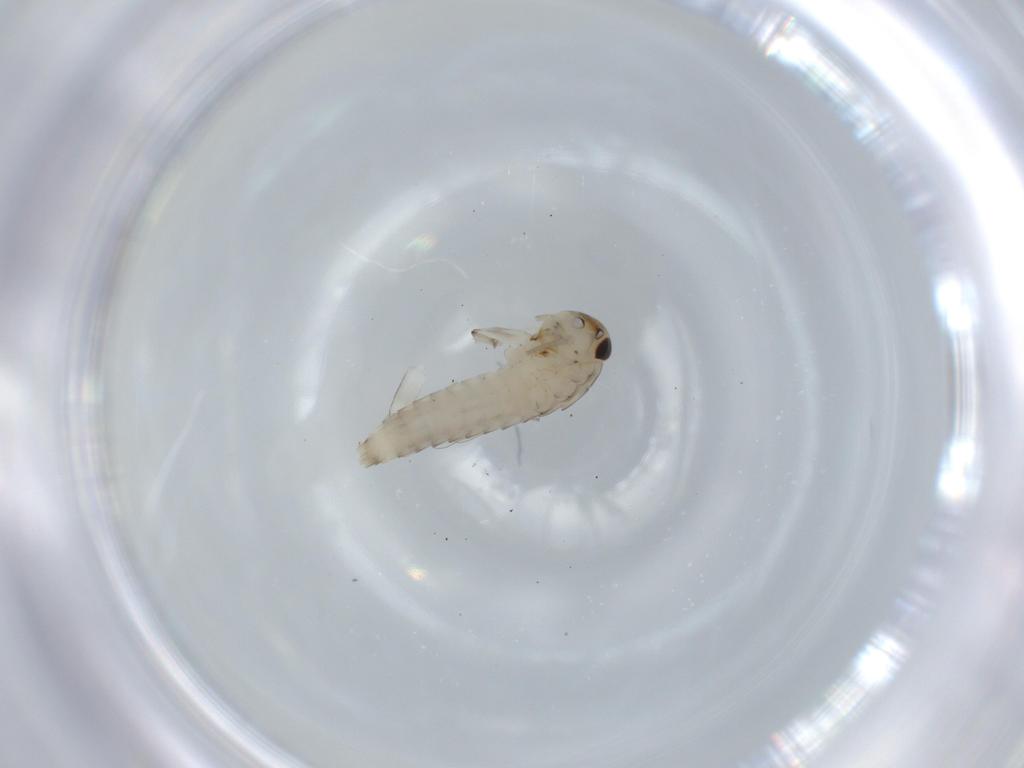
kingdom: Animalia
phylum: Arthropoda
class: Insecta
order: Ephemeroptera
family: Baetidae
